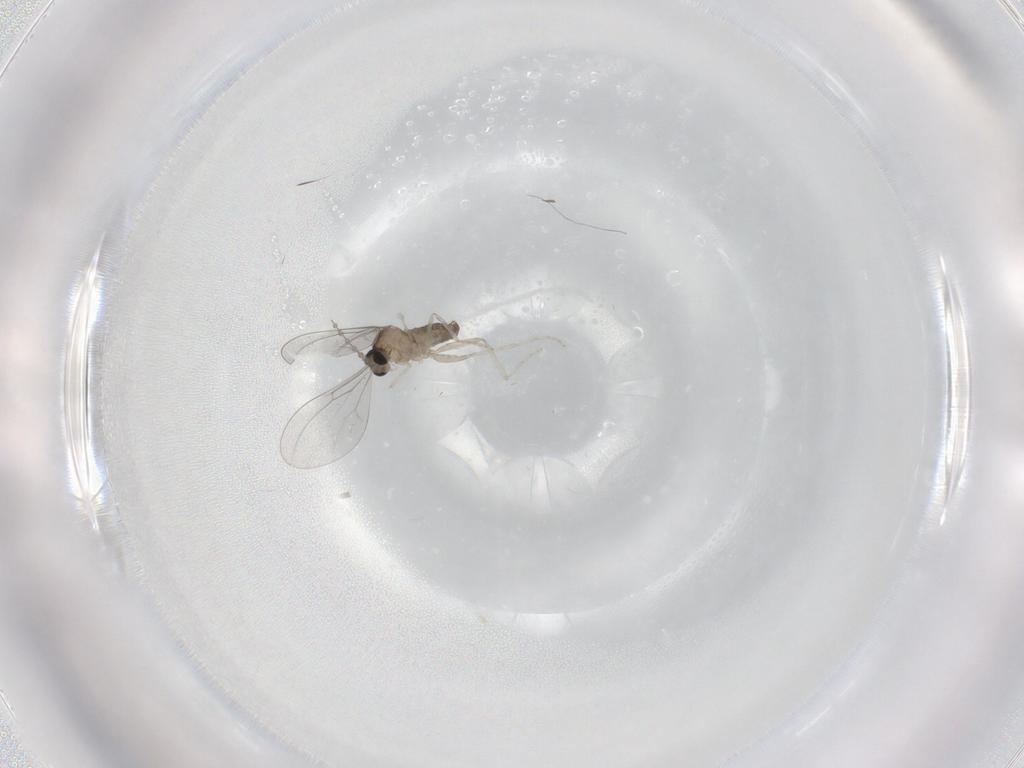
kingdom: Animalia
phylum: Arthropoda
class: Insecta
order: Diptera
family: Cecidomyiidae
